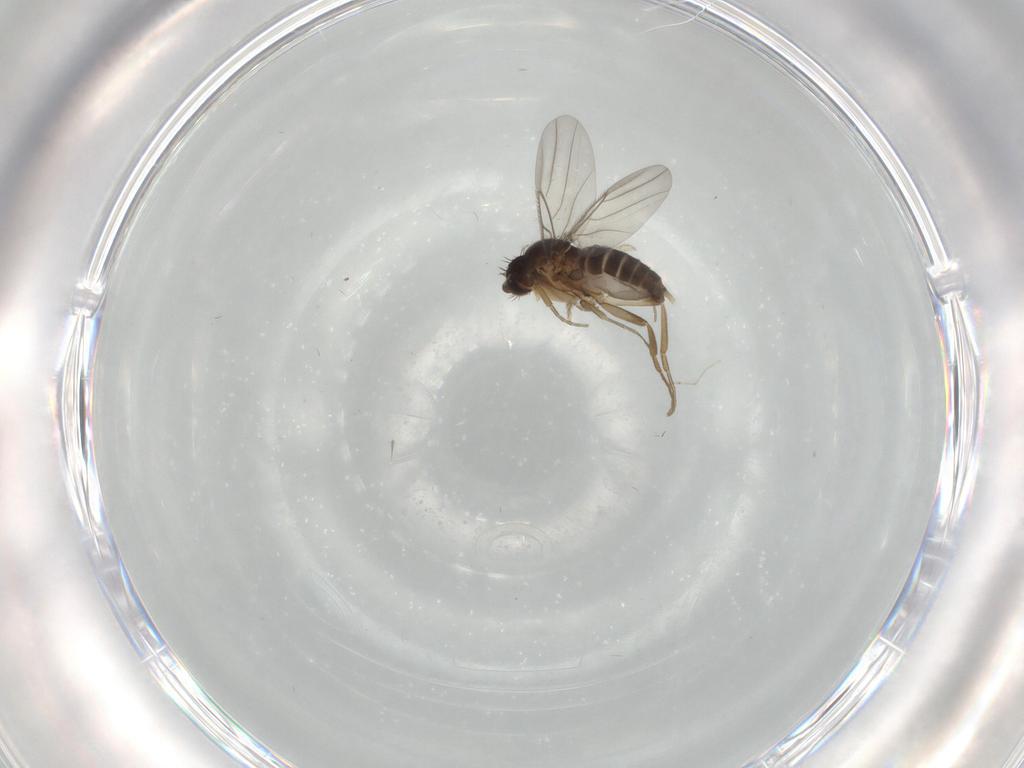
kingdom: Animalia
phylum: Arthropoda
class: Insecta
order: Diptera
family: Phoridae
